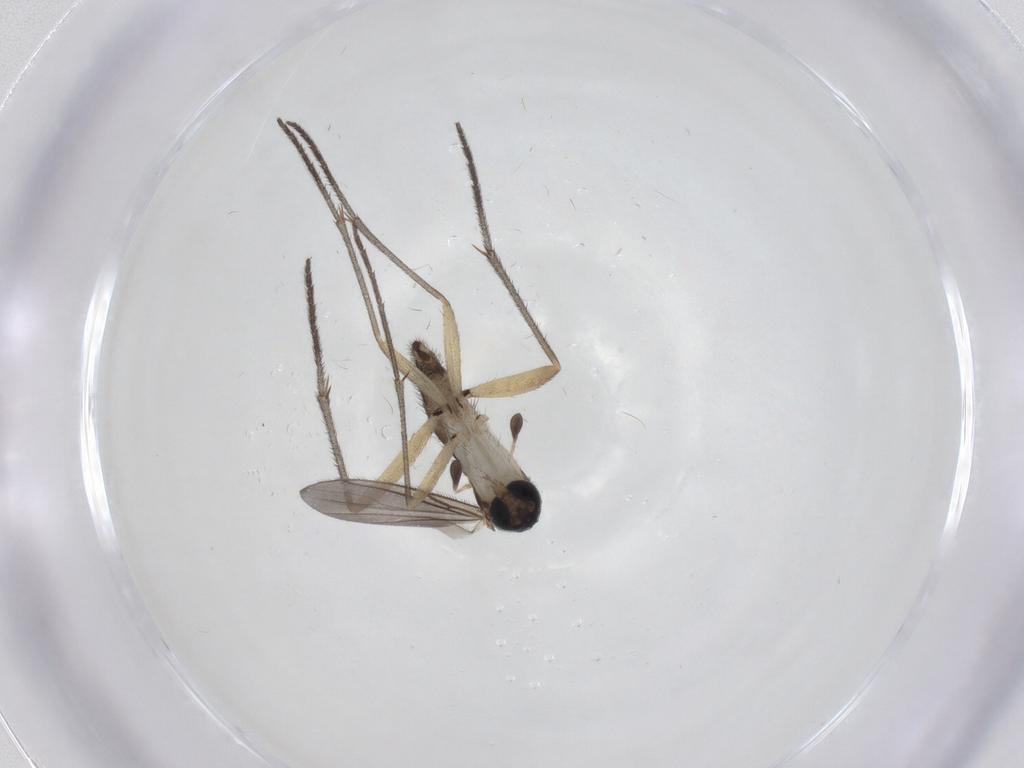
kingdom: Animalia
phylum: Arthropoda
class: Insecta
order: Diptera
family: Sciaridae
